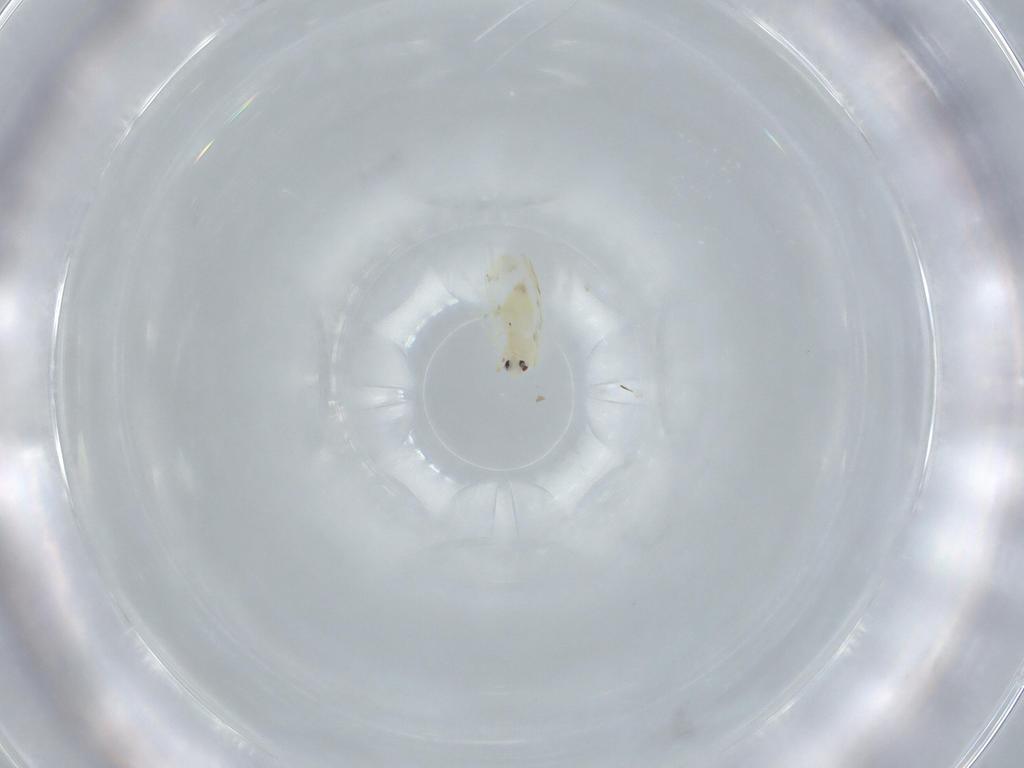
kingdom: Animalia
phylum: Arthropoda
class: Insecta
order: Hemiptera
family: Aleyrodidae
